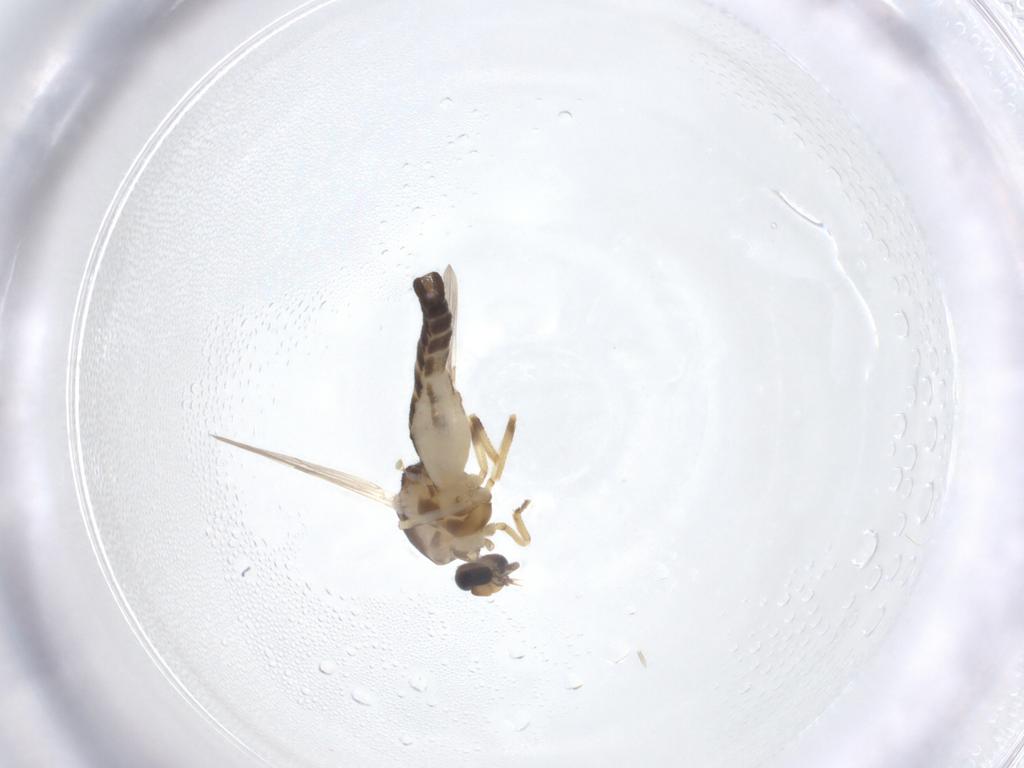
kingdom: Animalia
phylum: Arthropoda
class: Insecta
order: Diptera
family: Ceratopogonidae
